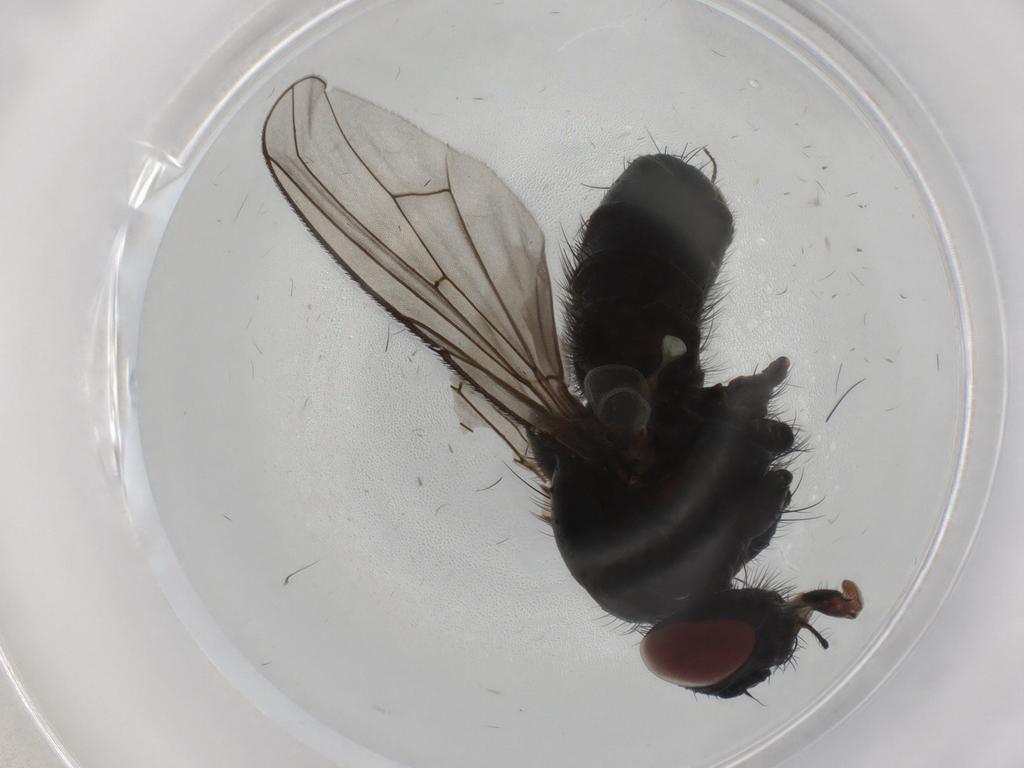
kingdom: Animalia
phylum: Arthropoda
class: Insecta
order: Diptera
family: Muscidae
